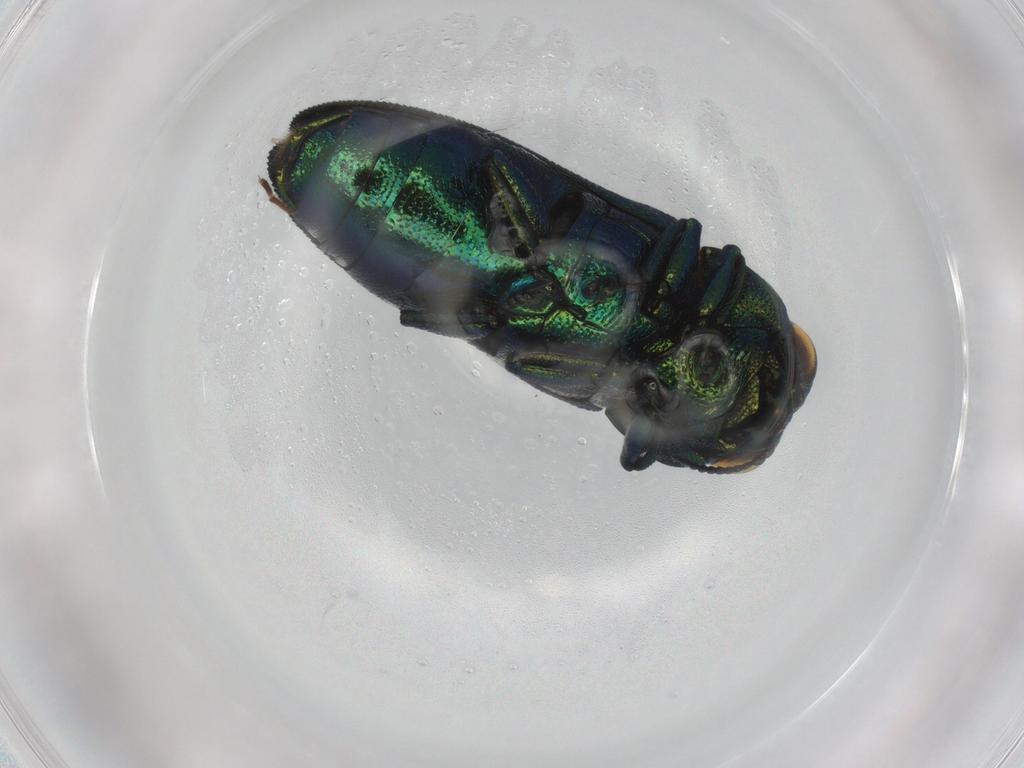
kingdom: Animalia
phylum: Arthropoda
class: Insecta
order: Coleoptera
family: Buprestidae
